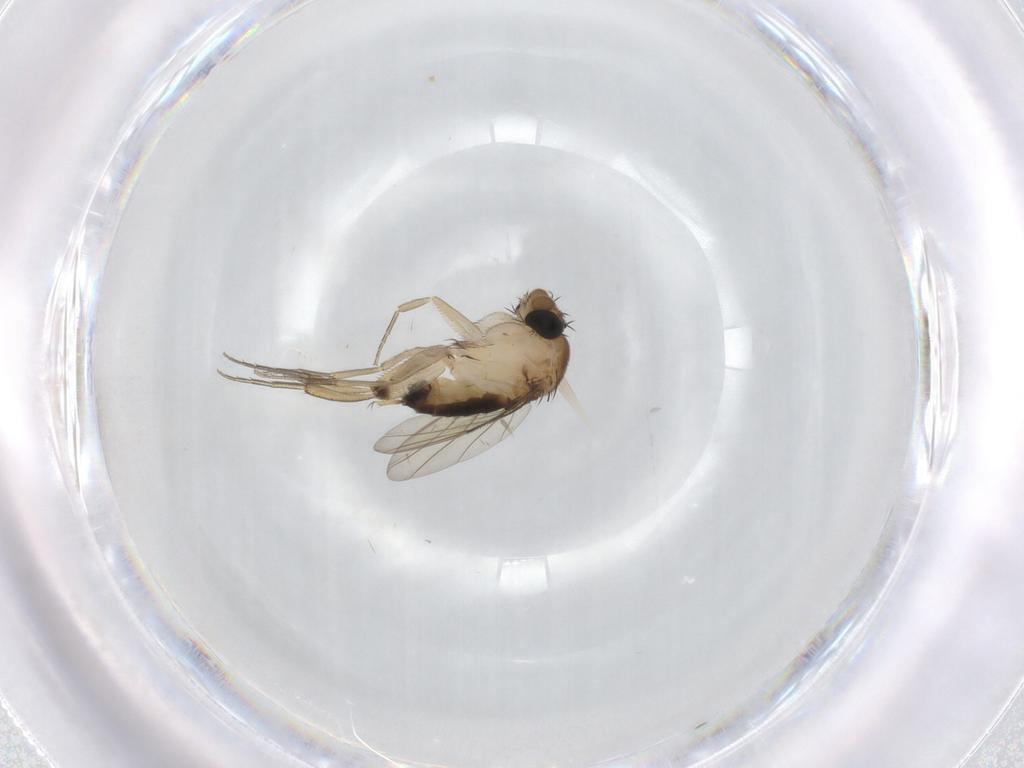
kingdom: Animalia
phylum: Arthropoda
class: Insecta
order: Diptera
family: Phoridae
